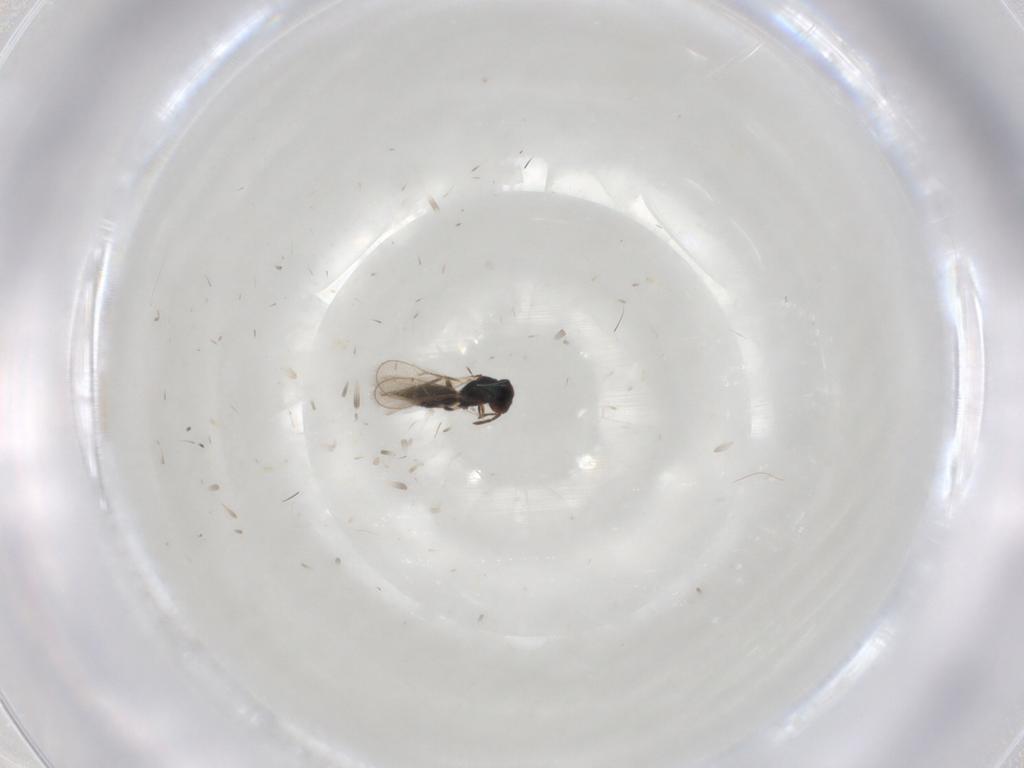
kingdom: Animalia
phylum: Arthropoda
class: Insecta
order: Hymenoptera
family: Eulophidae
